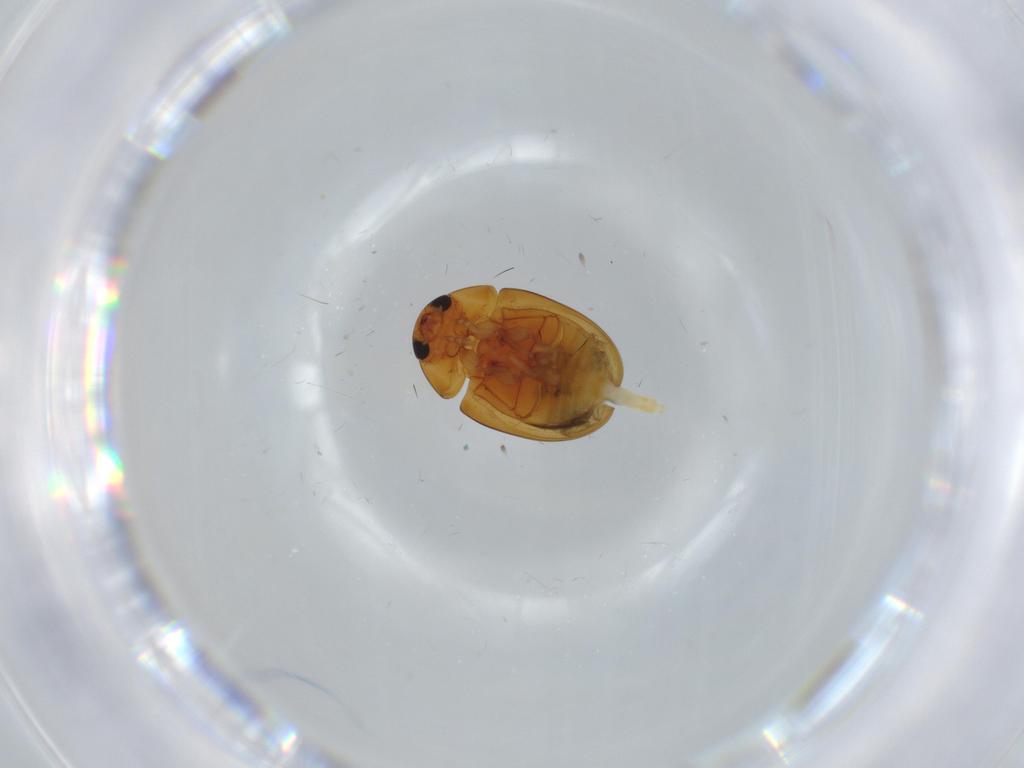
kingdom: Animalia
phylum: Arthropoda
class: Insecta
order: Coleoptera
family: Phalacridae
